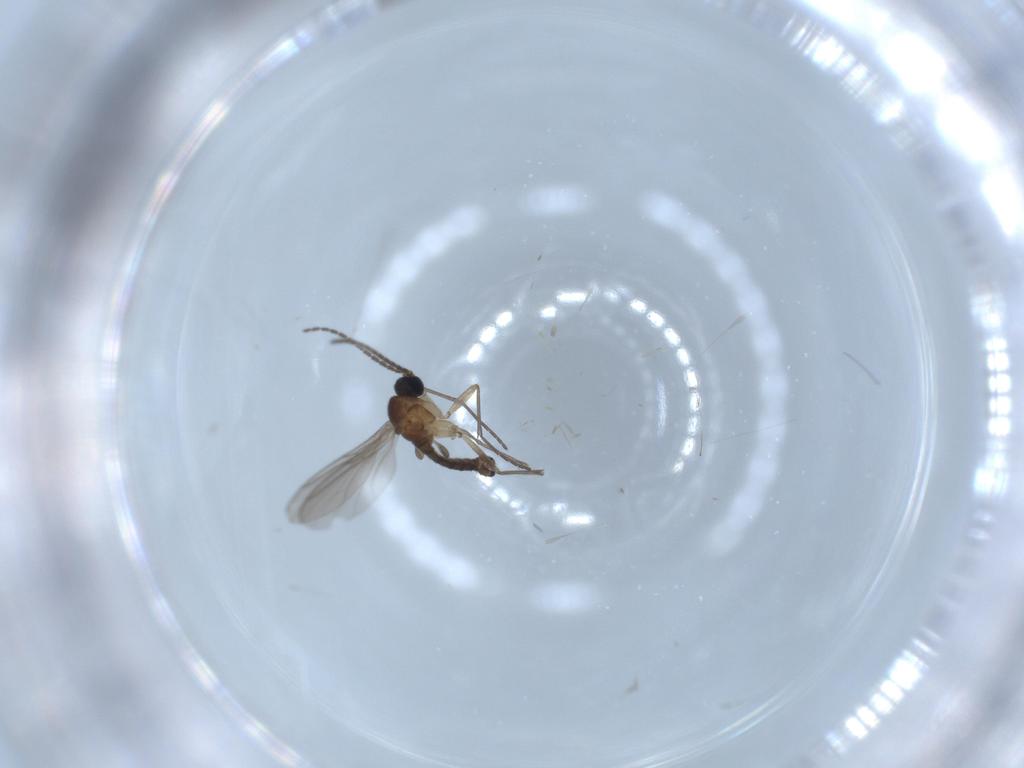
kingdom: Animalia
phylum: Arthropoda
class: Insecta
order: Diptera
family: Sciaridae
